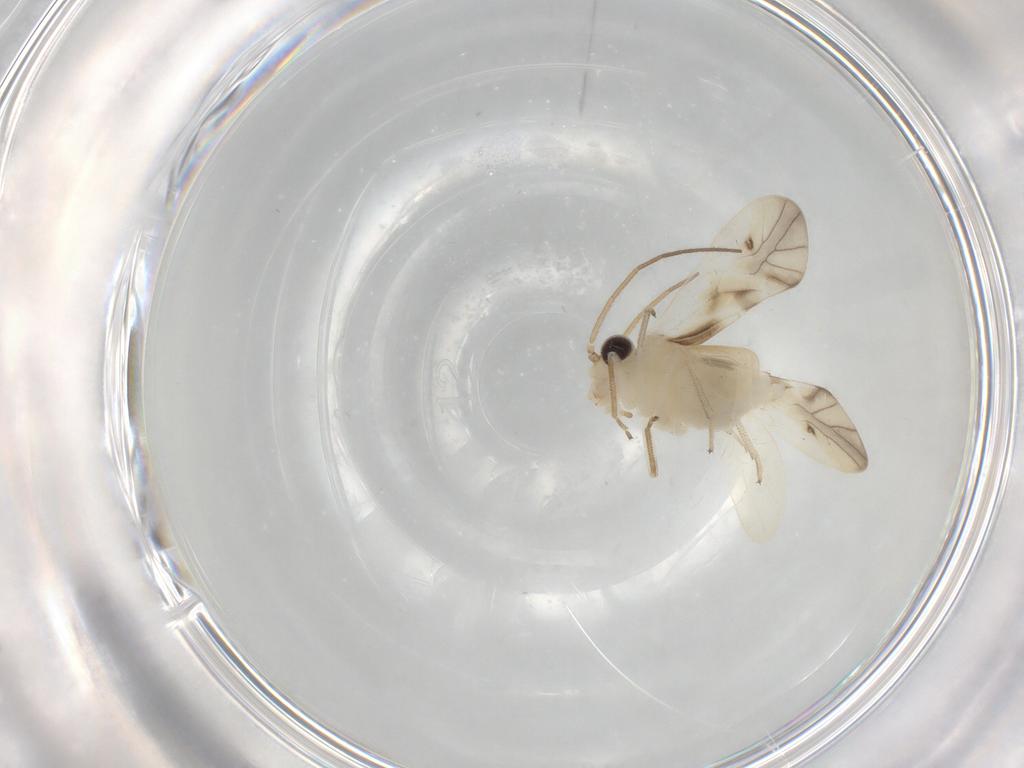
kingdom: Animalia
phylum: Arthropoda
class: Insecta
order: Psocodea
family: Caeciliusidae
